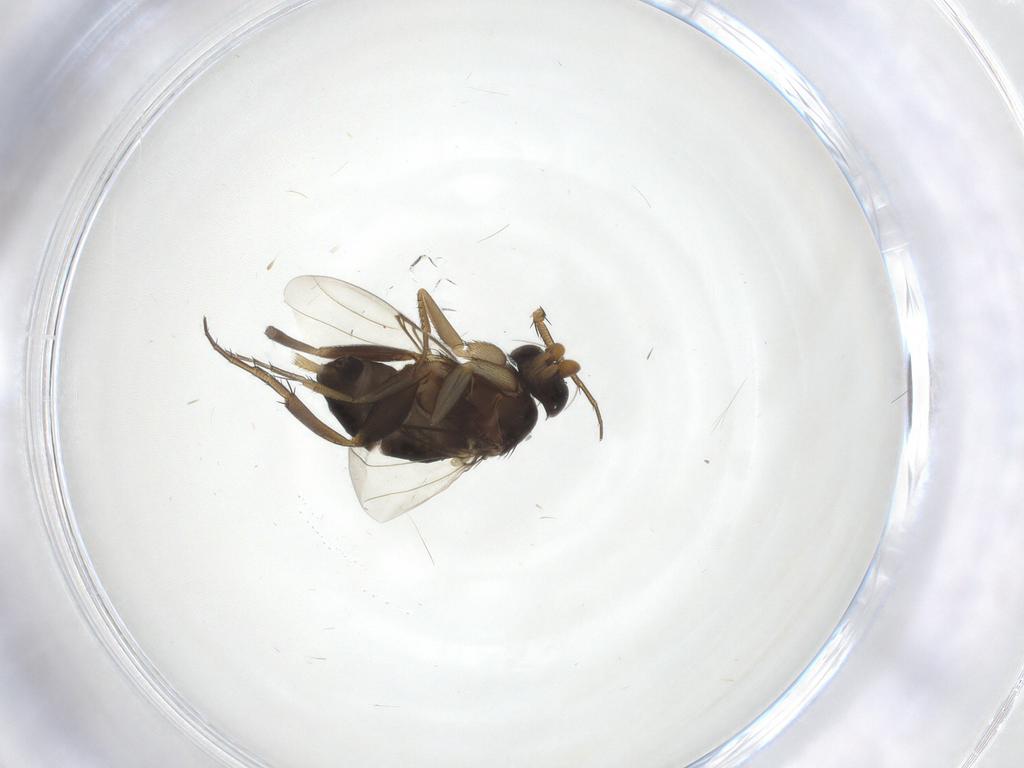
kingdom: Animalia
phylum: Arthropoda
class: Insecta
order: Diptera
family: Phoridae
